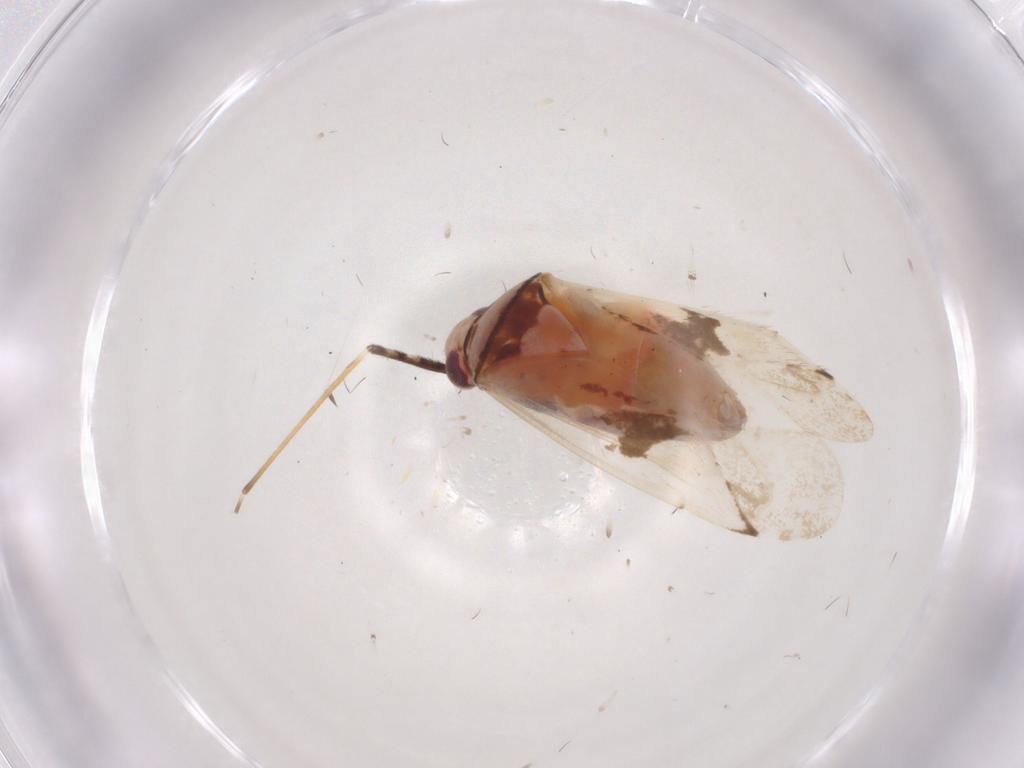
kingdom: Animalia
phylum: Arthropoda
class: Insecta
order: Hemiptera
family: Miridae
